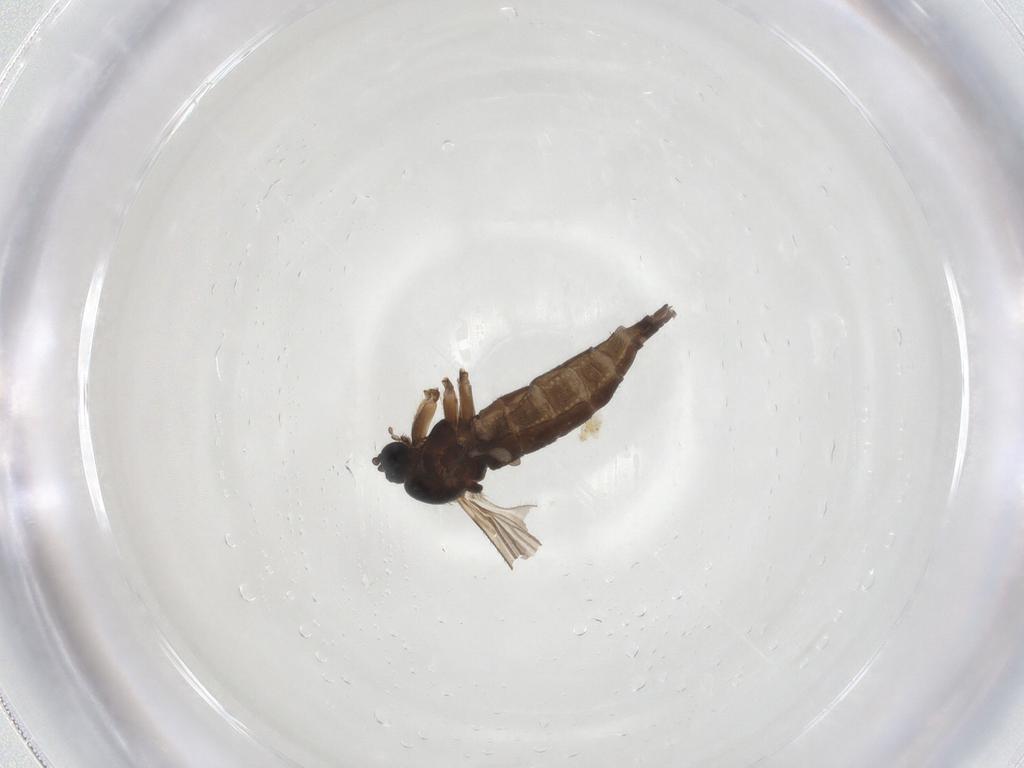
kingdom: Animalia
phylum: Arthropoda
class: Insecta
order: Diptera
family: Sciaridae
